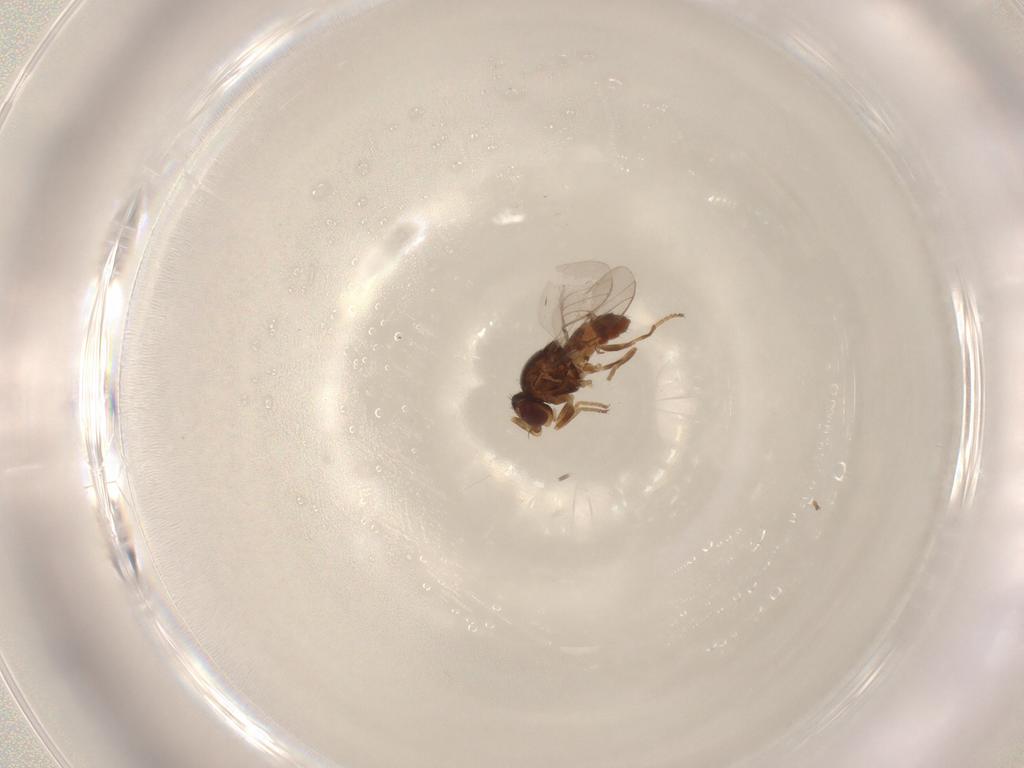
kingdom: Animalia
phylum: Arthropoda
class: Insecta
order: Diptera
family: Chloropidae
